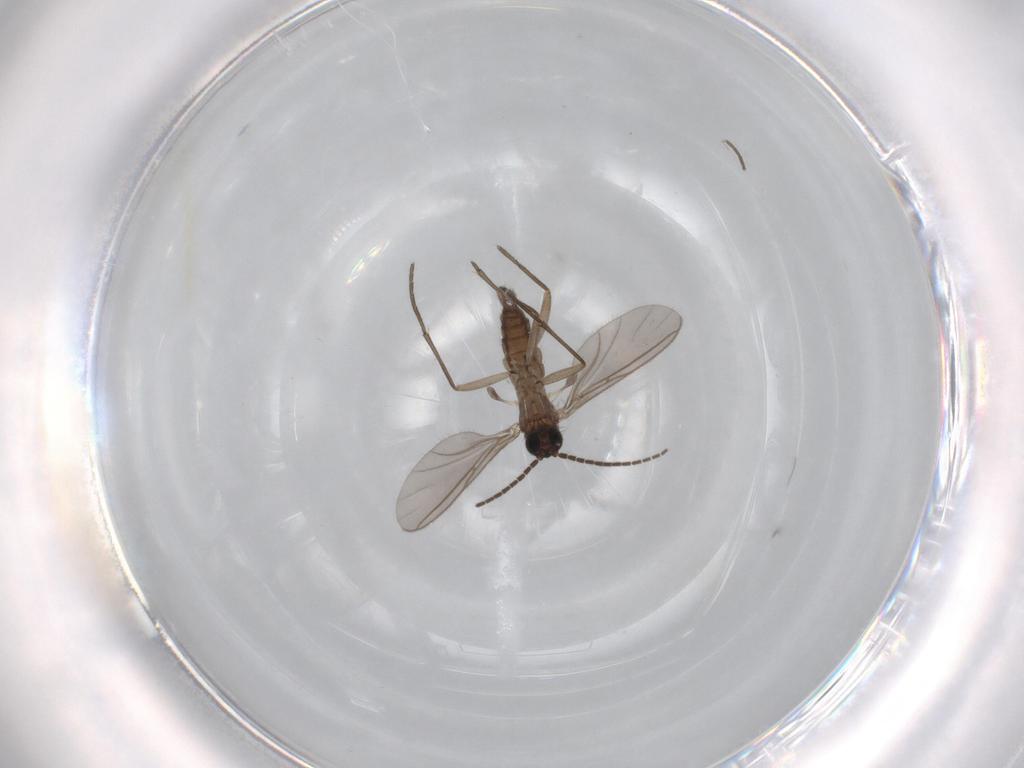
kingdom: Animalia
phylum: Arthropoda
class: Insecta
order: Diptera
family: Sciaridae
